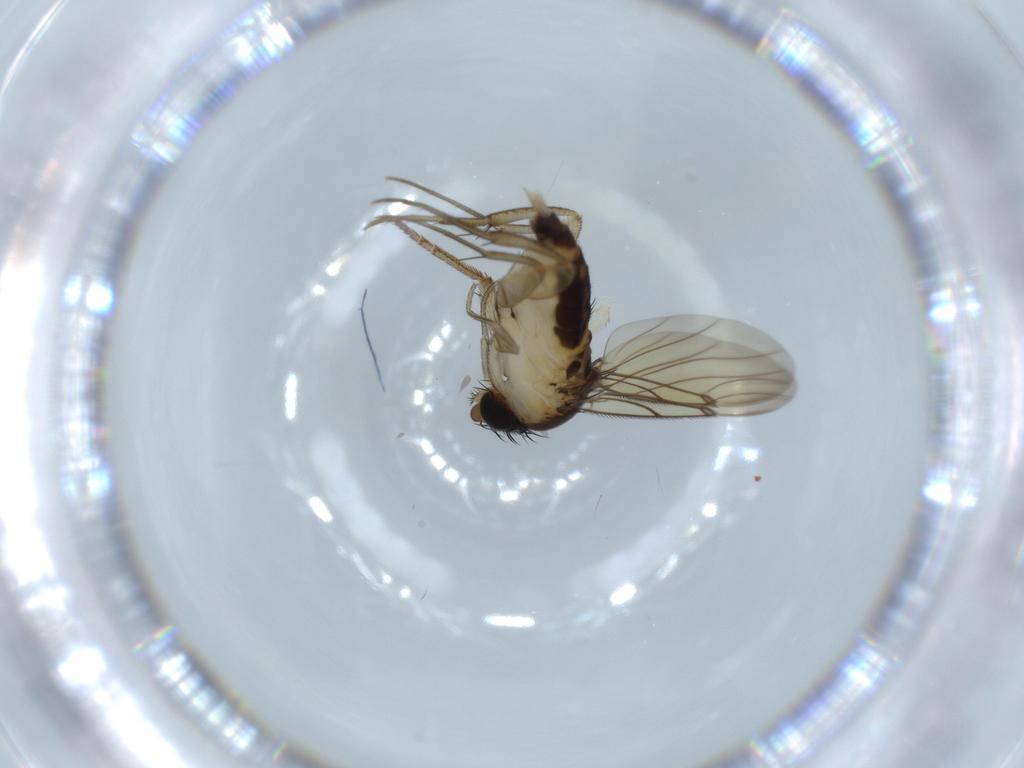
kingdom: Animalia
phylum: Arthropoda
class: Insecta
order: Diptera
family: Phoridae
